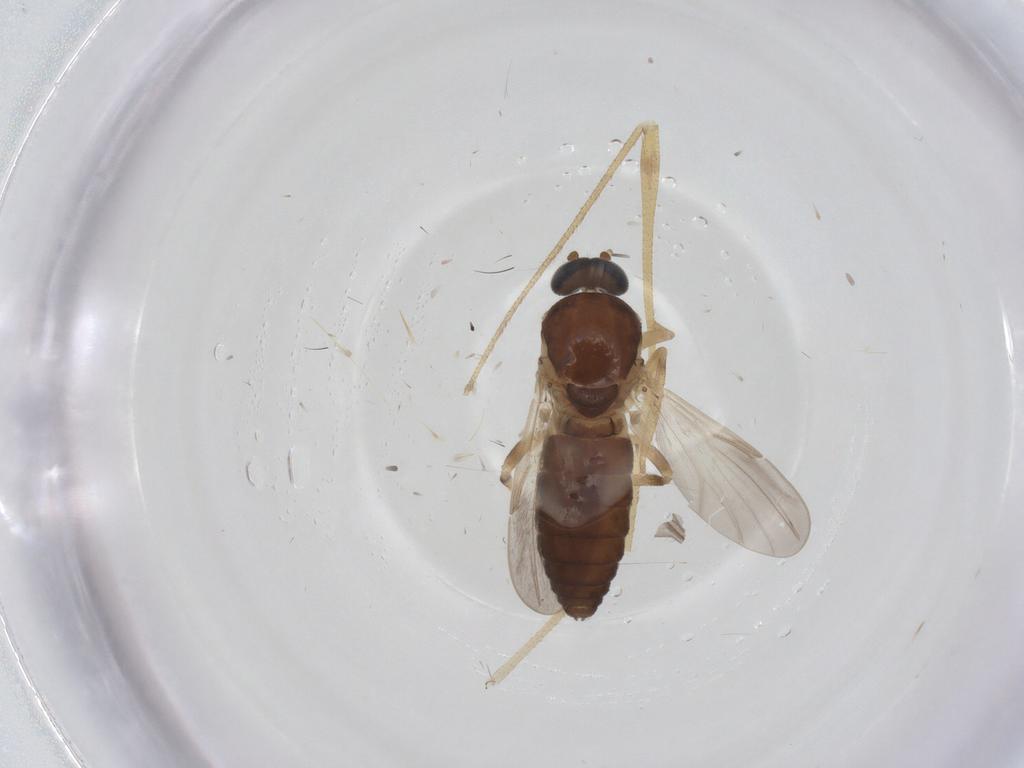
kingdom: Animalia
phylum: Arthropoda
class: Insecta
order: Diptera
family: Ceratopogonidae
